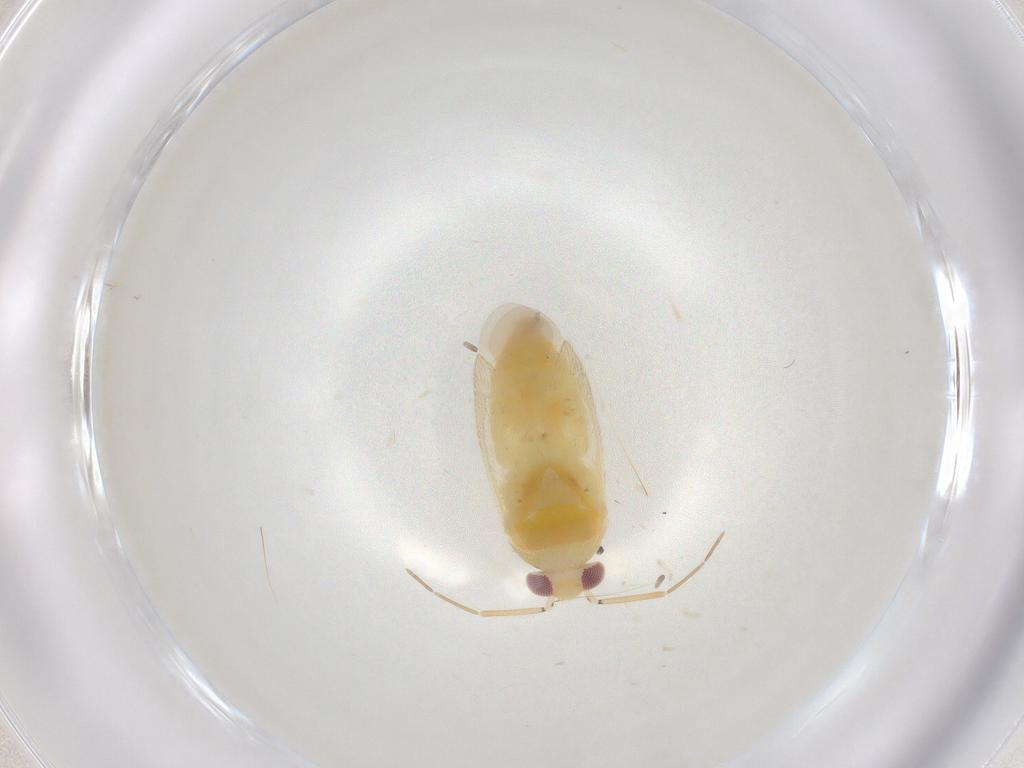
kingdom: Animalia
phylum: Arthropoda
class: Insecta
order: Hemiptera
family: Miridae
